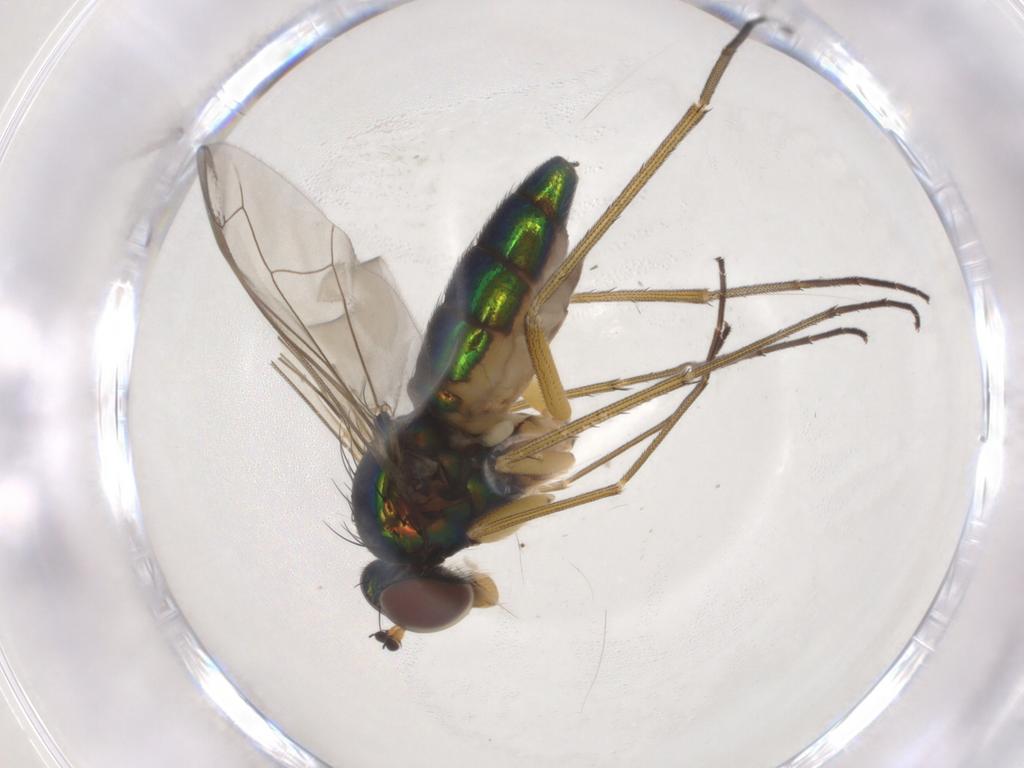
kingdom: Animalia
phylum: Arthropoda
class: Insecta
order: Diptera
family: Dolichopodidae
